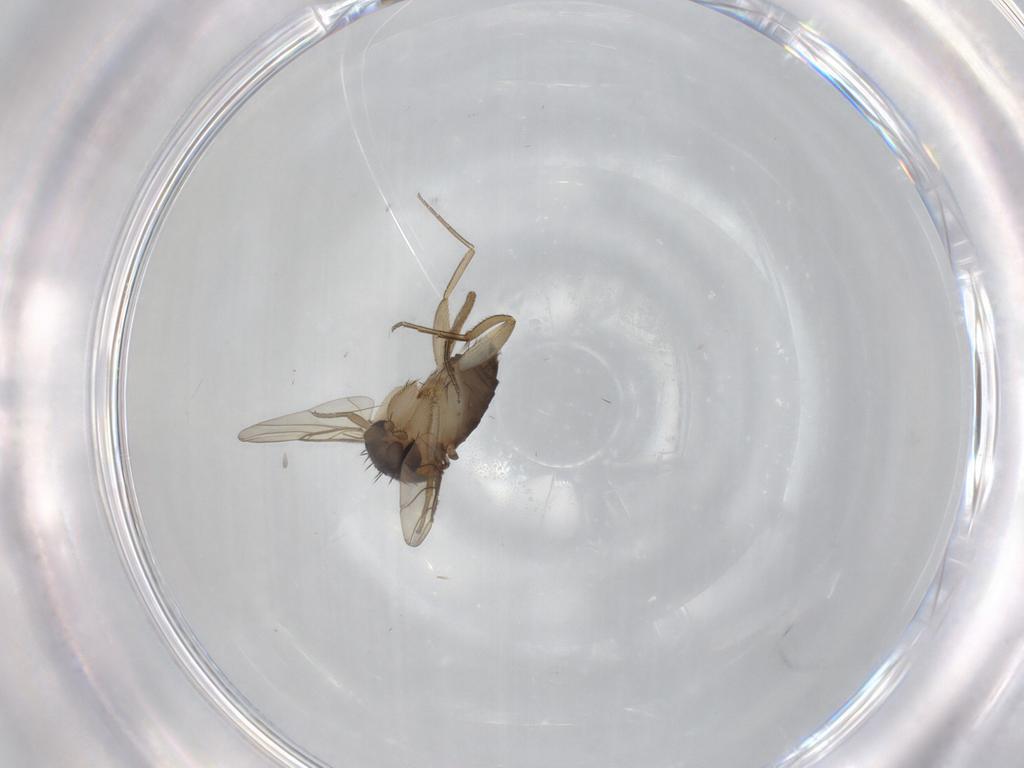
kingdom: Animalia
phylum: Arthropoda
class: Insecta
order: Diptera
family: Phoridae
